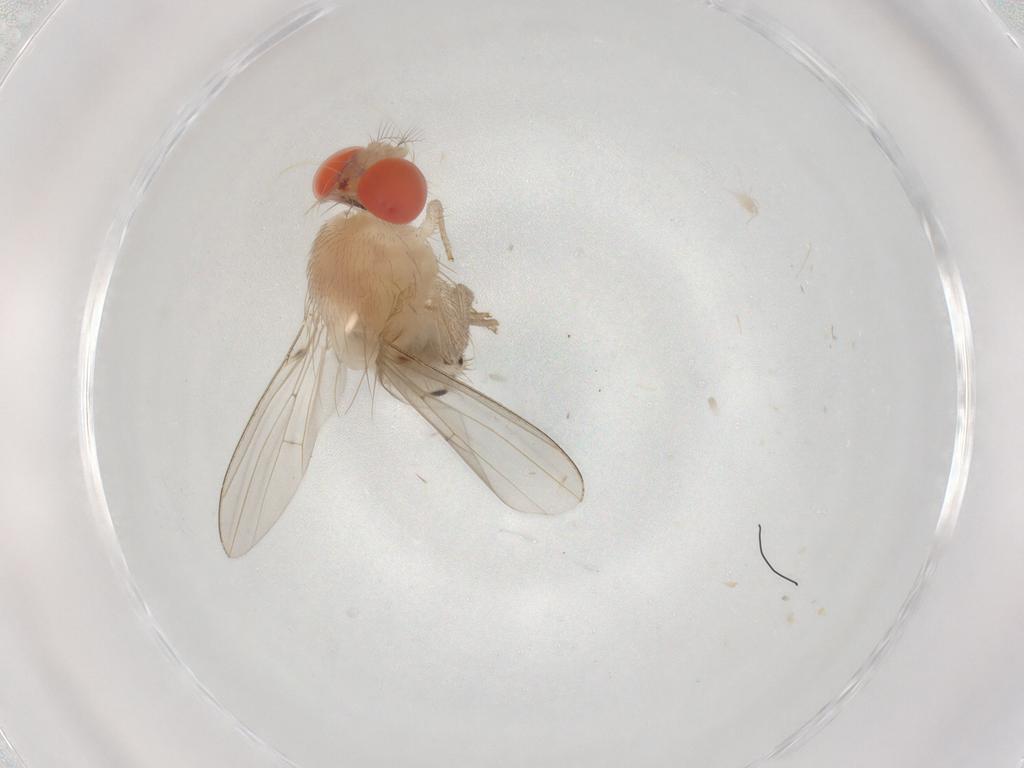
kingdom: Animalia
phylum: Arthropoda
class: Insecta
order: Diptera
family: Drosophilidae
